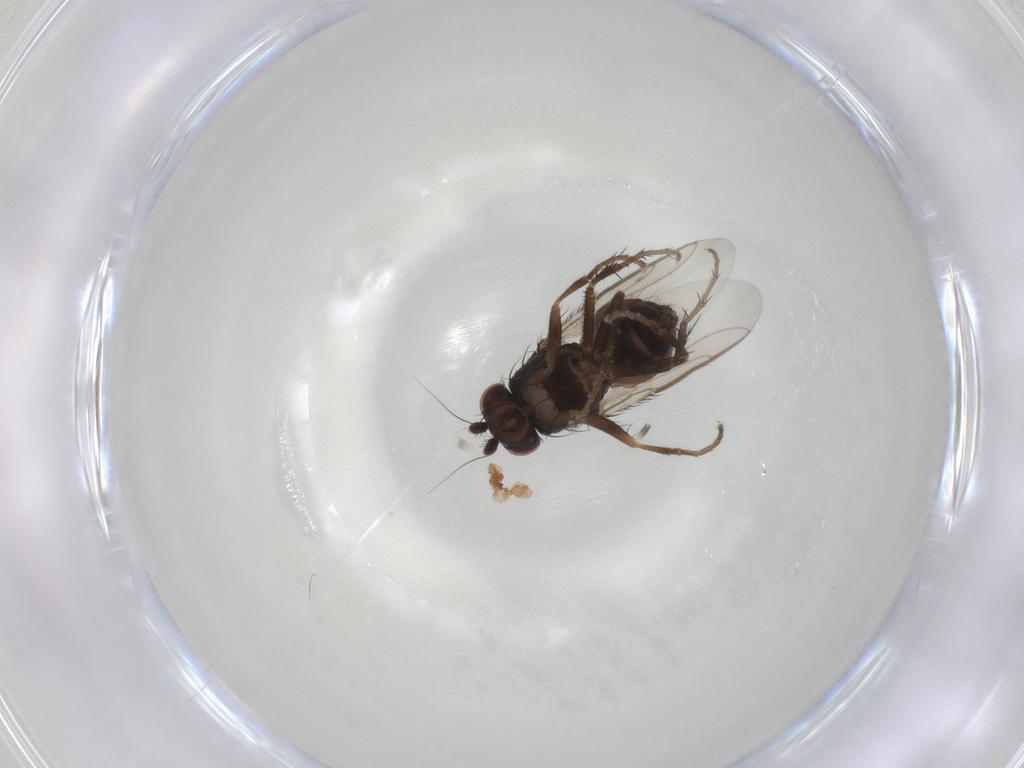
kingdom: Animalia
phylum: Arthropoda
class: Insecta
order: Diptera
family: Sphaeroceridae
